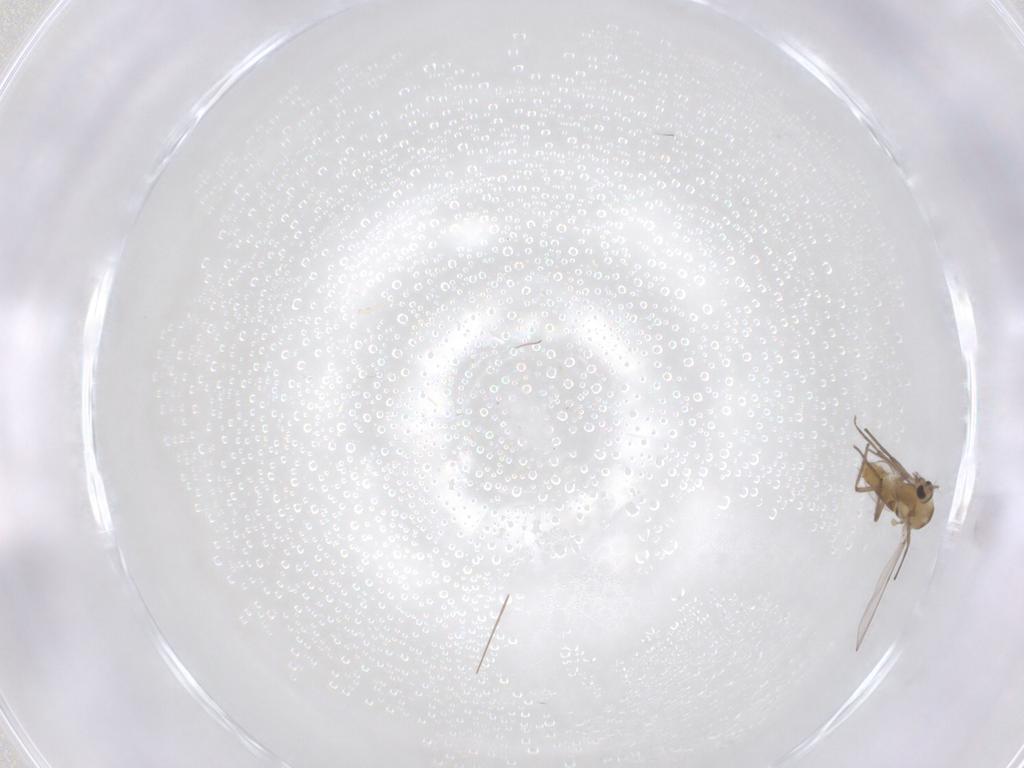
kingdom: Animalia
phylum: Arthropoda
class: Insecta
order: Diptera
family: Chironomidae
